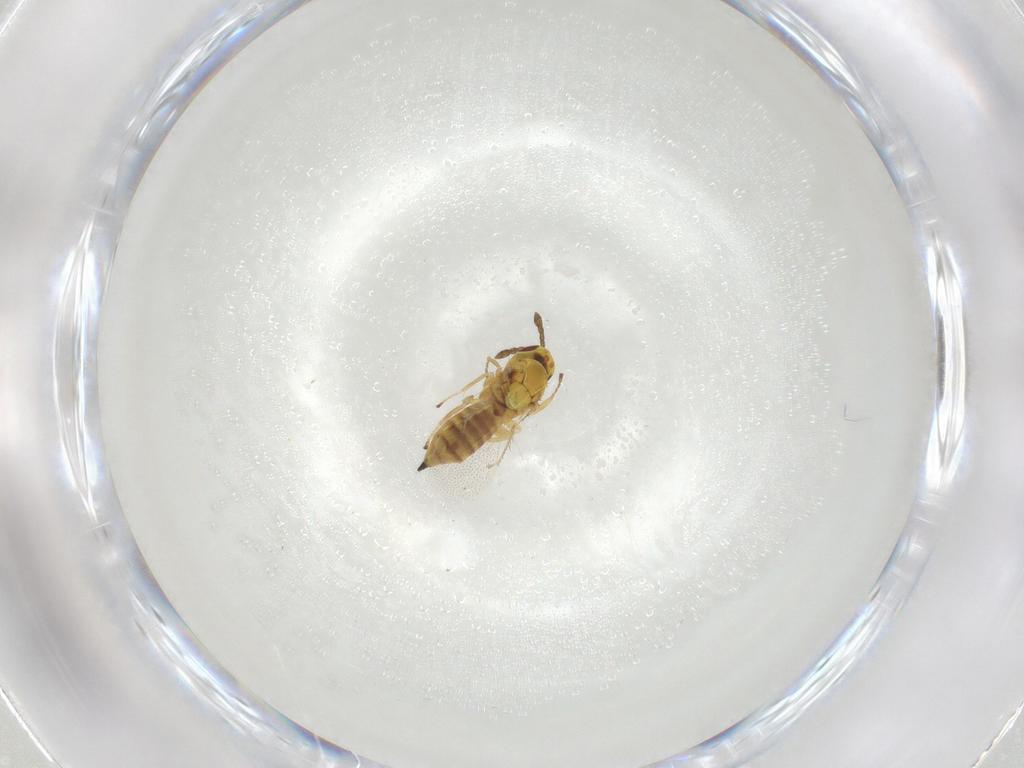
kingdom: Animalia
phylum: Arthropoda
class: Insecta
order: Hymenoptera
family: Eulophidae
